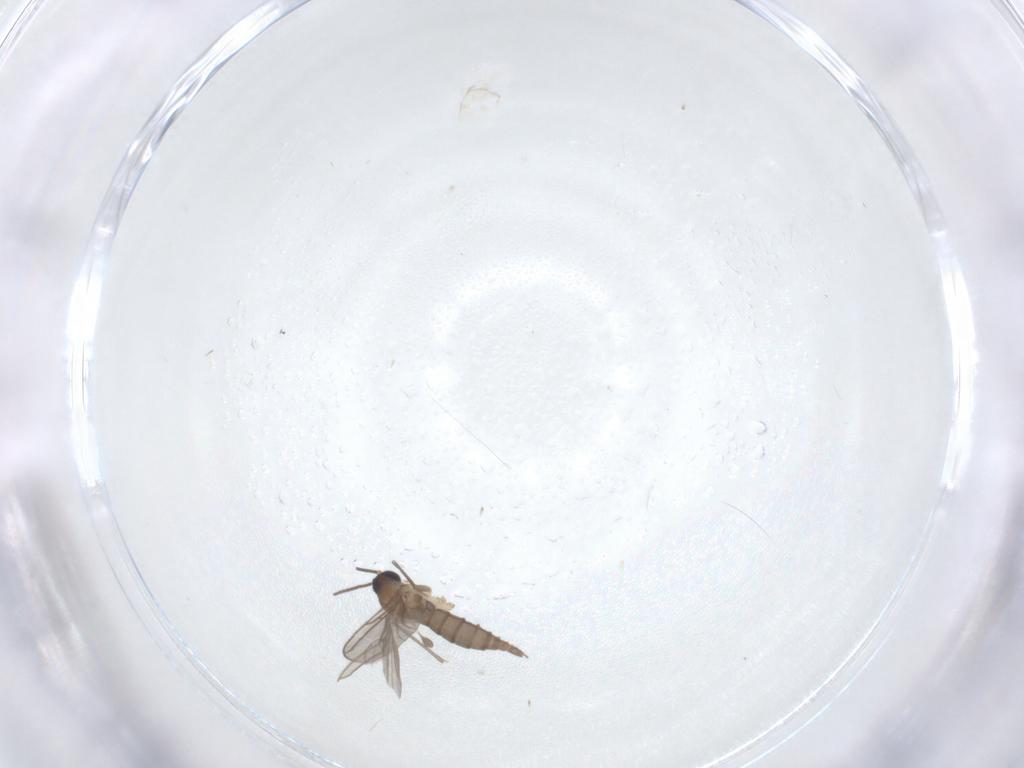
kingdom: Animalia
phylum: Arthropoda
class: Insecta
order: Diptera
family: Sciaridae
